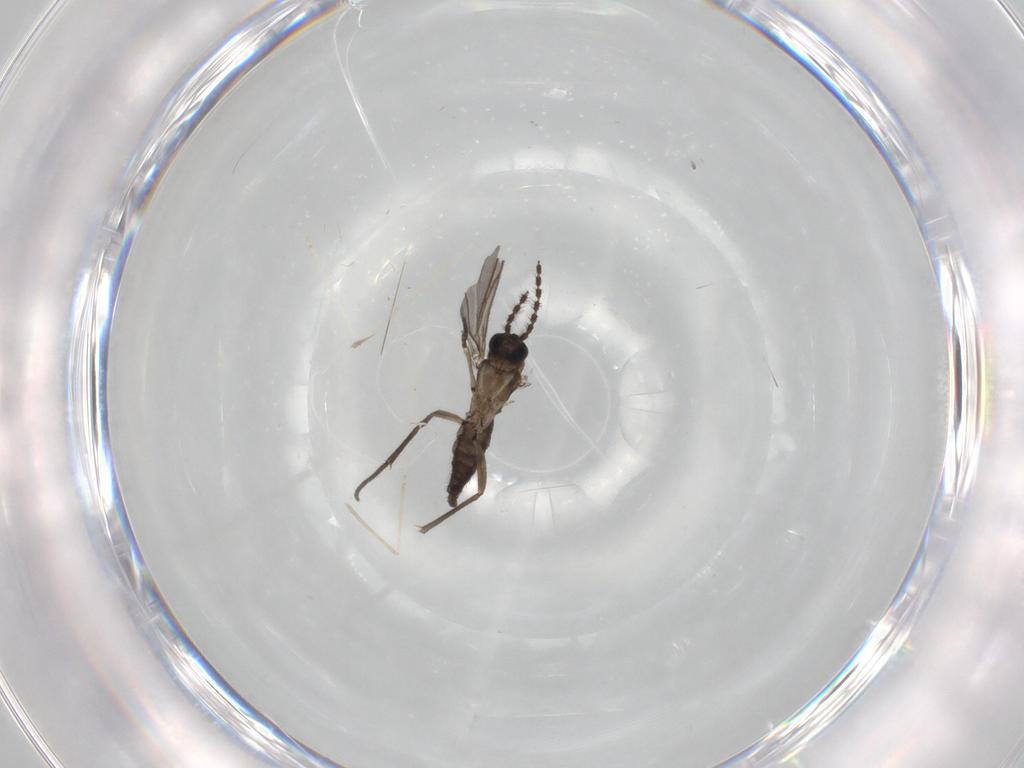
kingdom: Animalia
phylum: Arthropoda
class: Insecta
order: Diptera
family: Sciaridae
